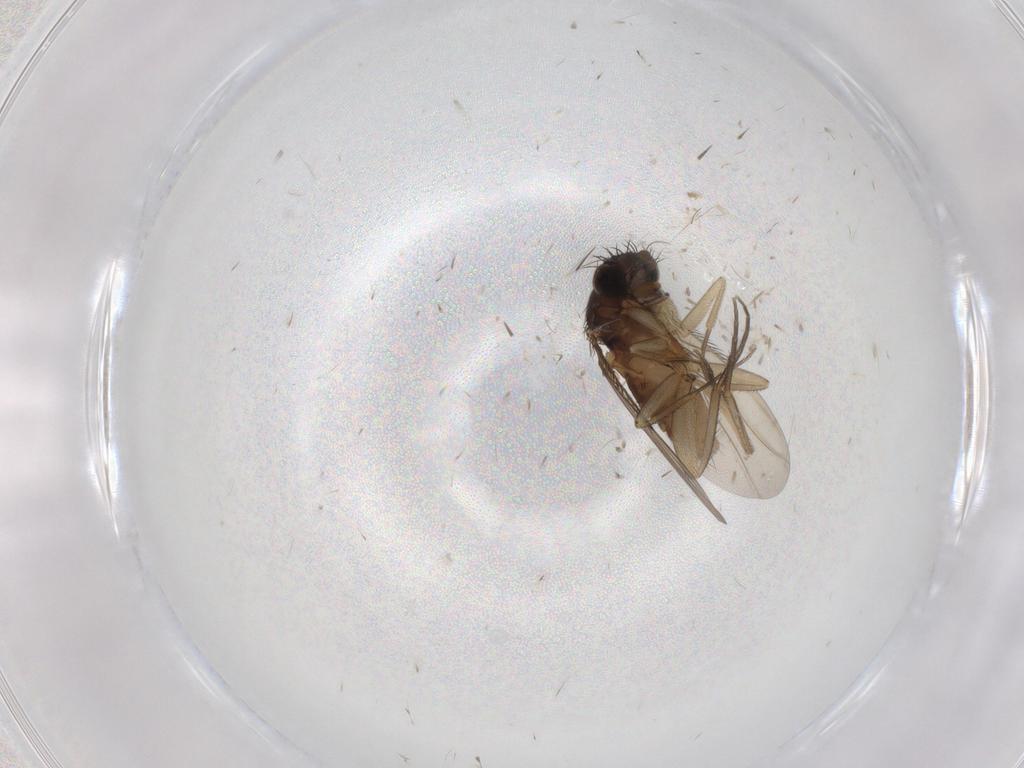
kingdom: Animalia
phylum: Arthropoda
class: Insecta
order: Diptera
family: Phoridae
